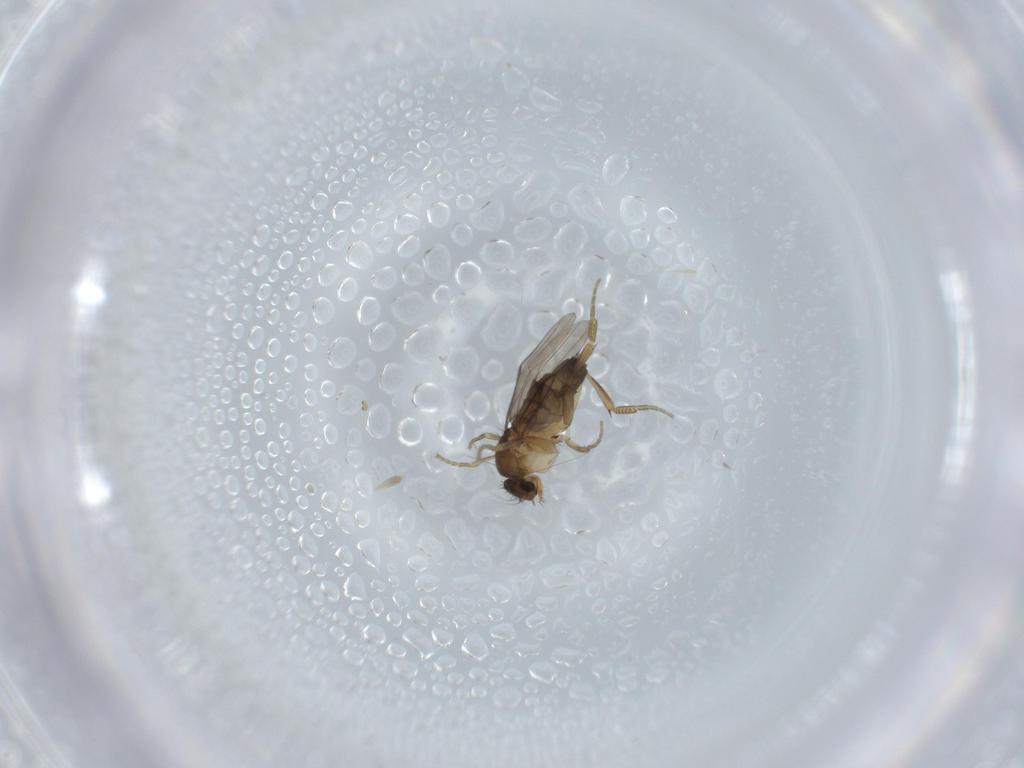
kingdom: Animalia
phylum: Arthropoda
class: Insecta
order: Diptera
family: Phoridae
